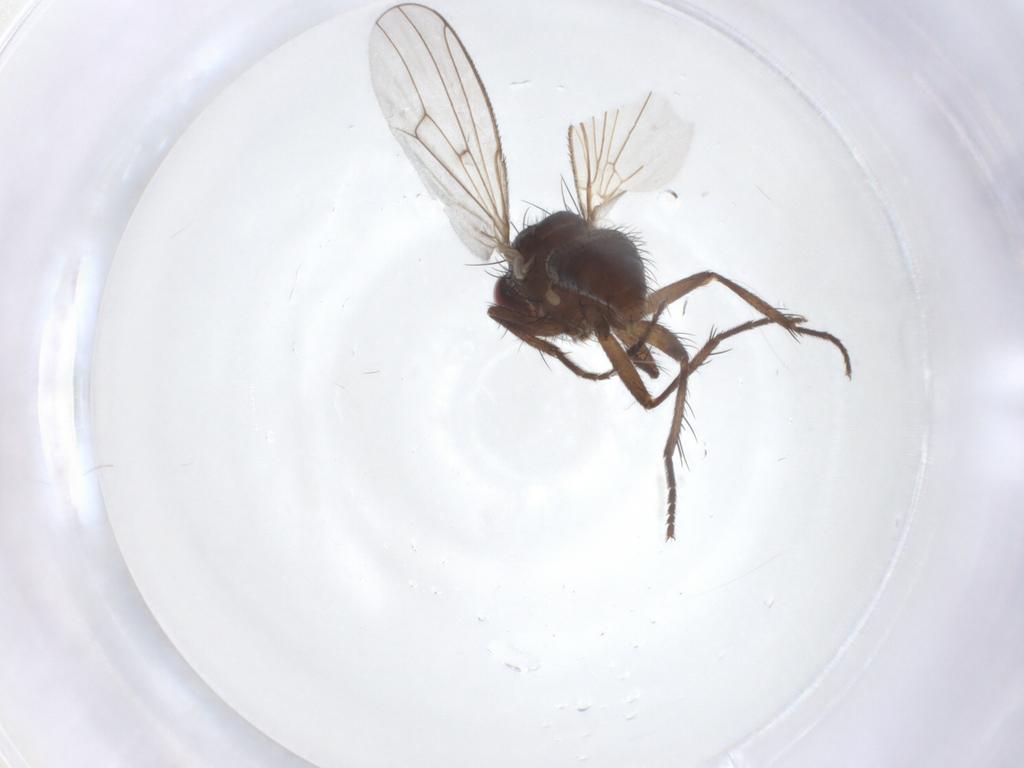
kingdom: Animalia
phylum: Arthropoda
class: Insecta
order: Diptera
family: Muscidae
